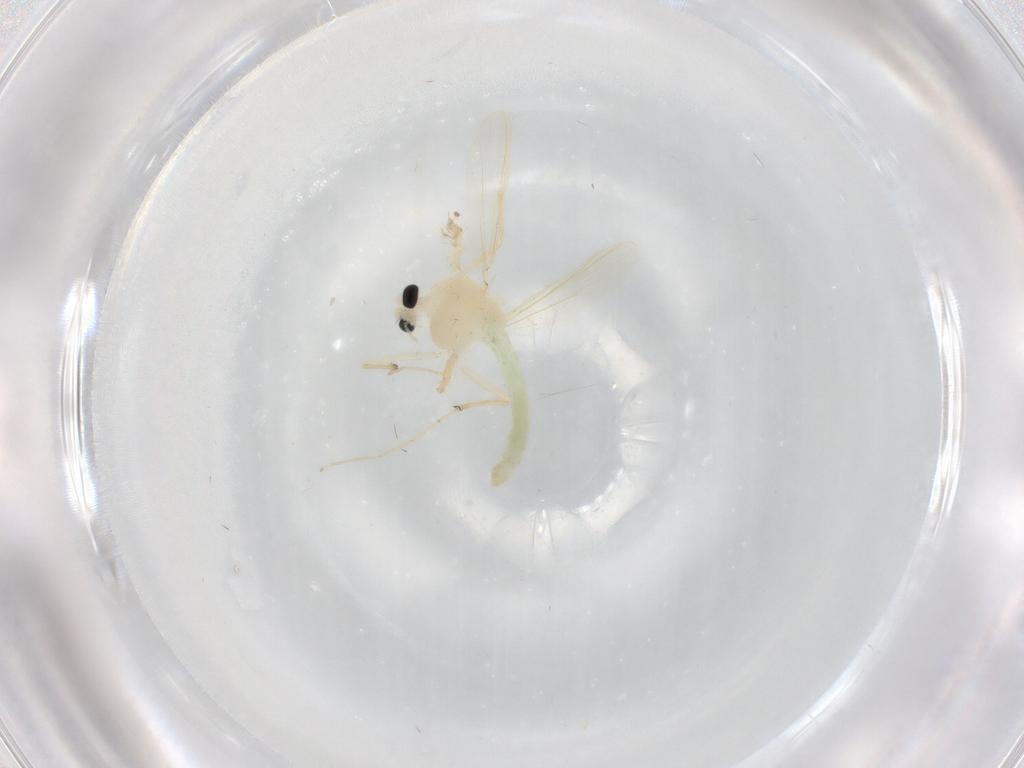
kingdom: Animalia
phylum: Arthropoda
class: Insecta
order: Diptera
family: Chironomidae
